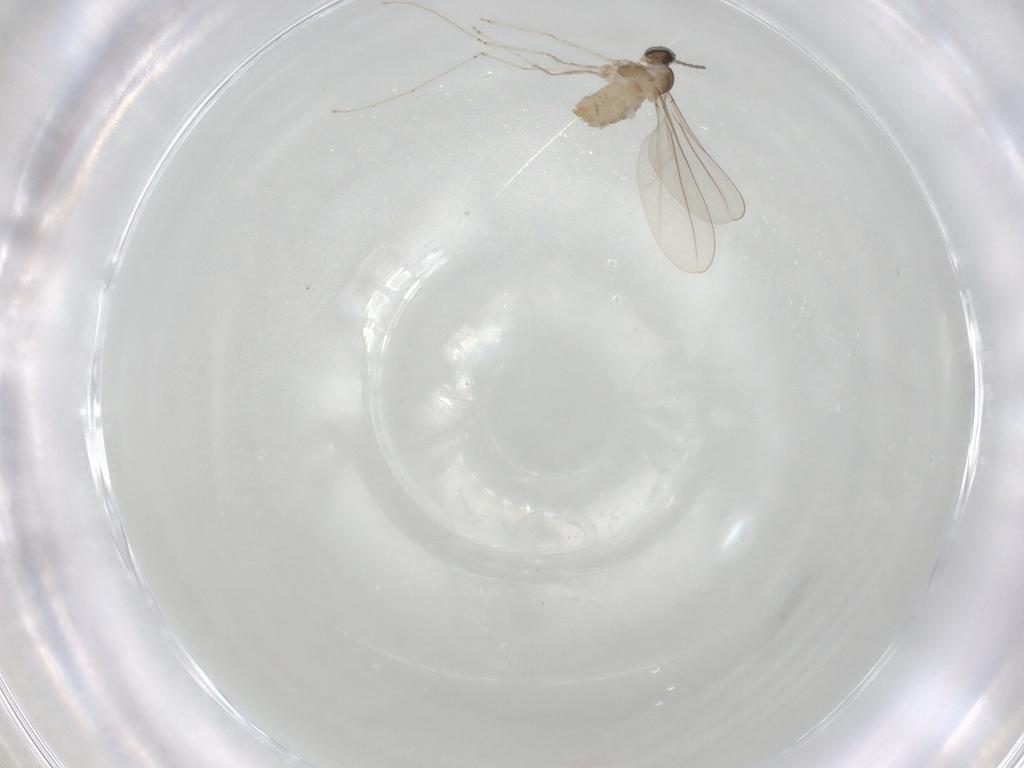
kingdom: Animalia
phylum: Arthropoda
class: Insecta
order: Diptera
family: Cecidomyiidae
